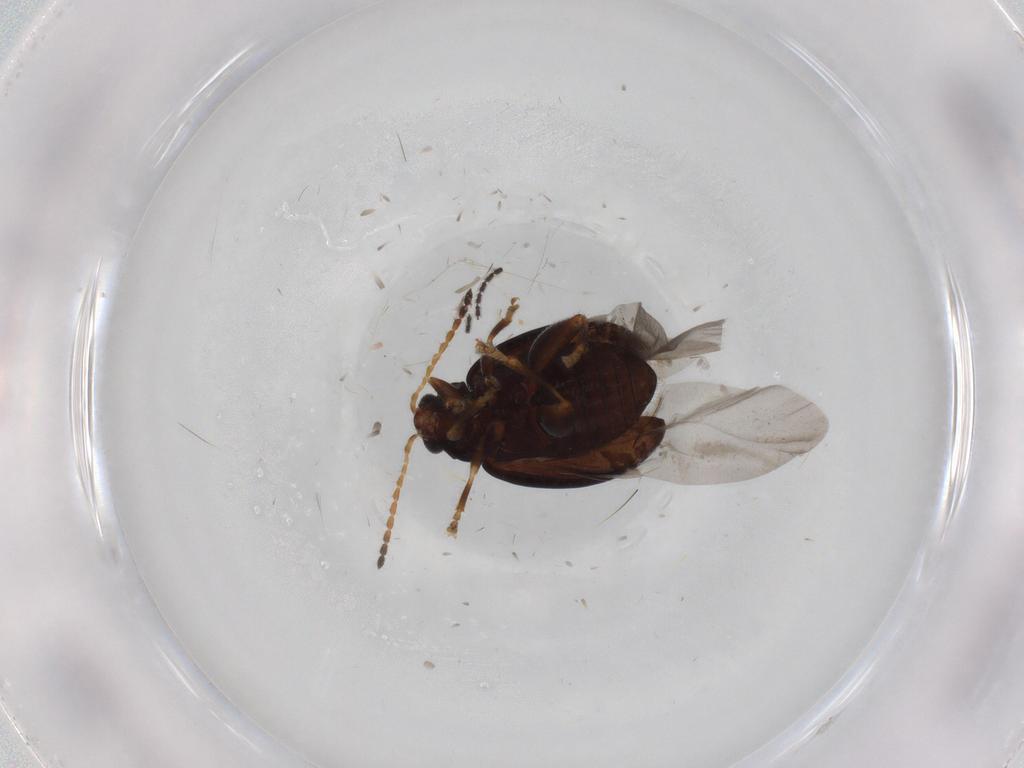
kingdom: Animalia
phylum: Arthropoda
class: Insecta
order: Coleoptera
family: Chrysomelidae
